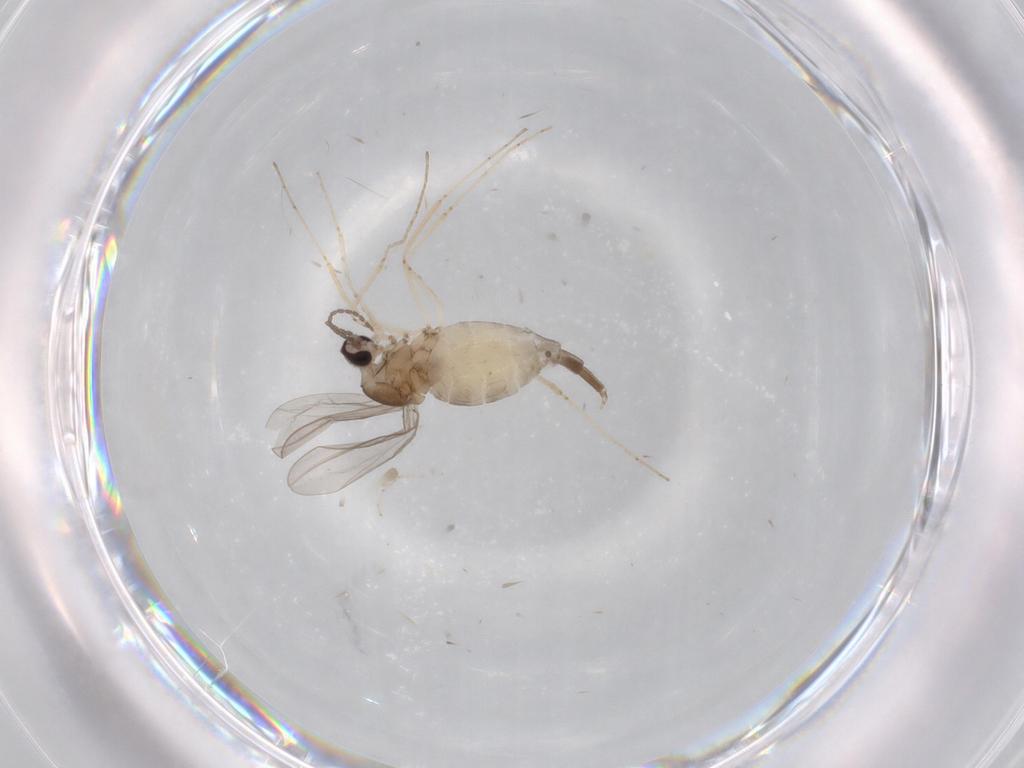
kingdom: Animalia
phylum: Arthropoda
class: Insecta
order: Diptera
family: Cecidomyiidae
